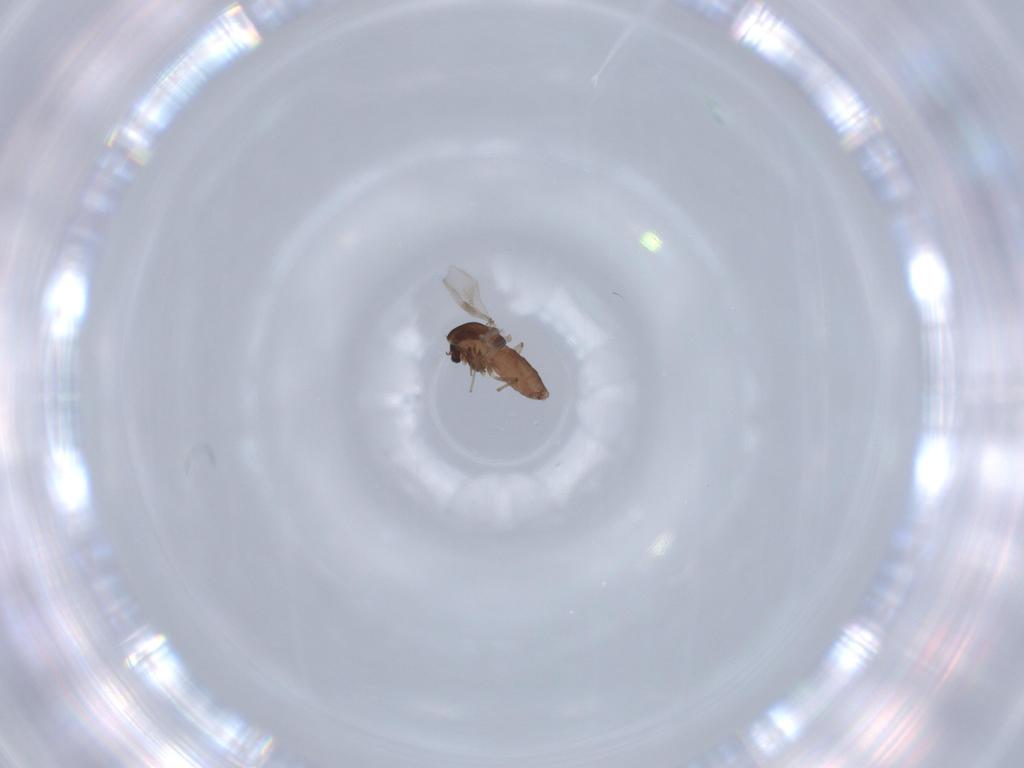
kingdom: Animalia
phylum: Arthropoda
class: Insecta
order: Diptera
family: Chironomidae
